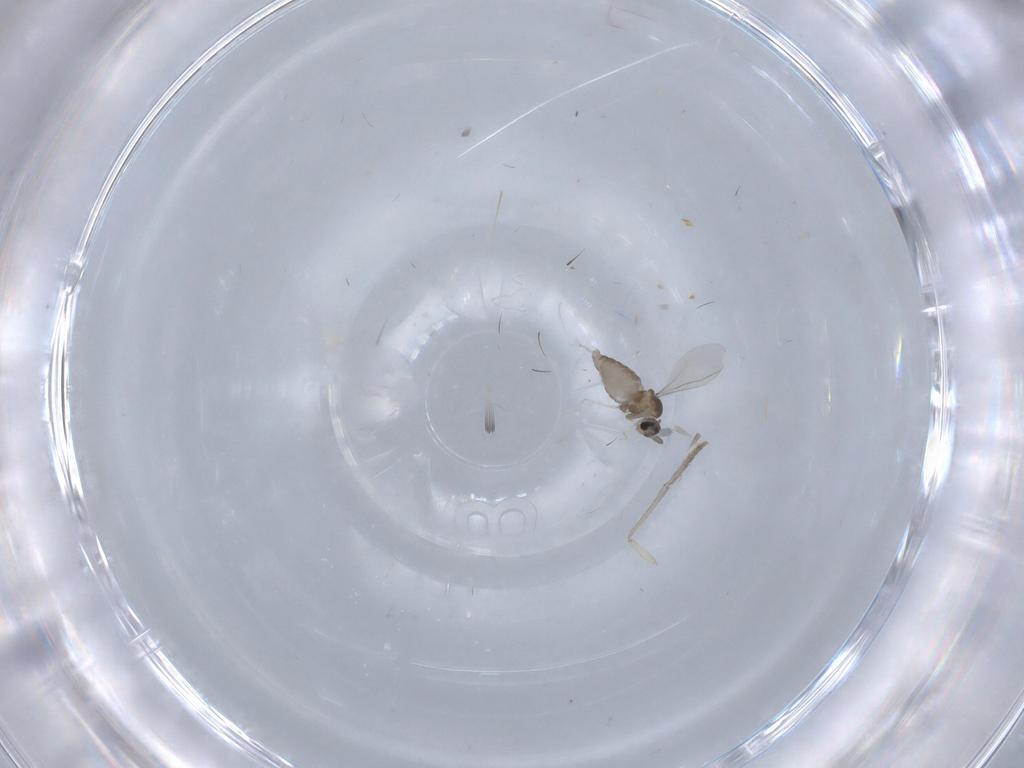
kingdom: Animalia
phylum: Arthropoda
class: Insecta
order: Diptera
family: Cecidomyiidae
